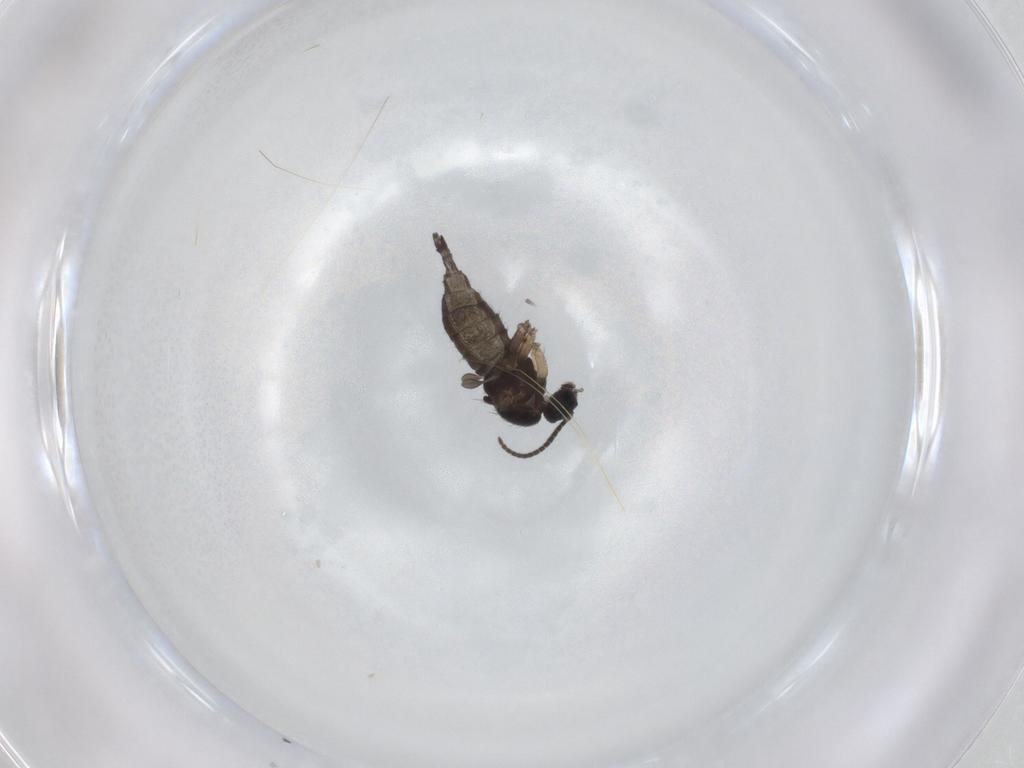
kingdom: Animalia
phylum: Arthropoda
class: Insecta
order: Diptera
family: Sciaridae
